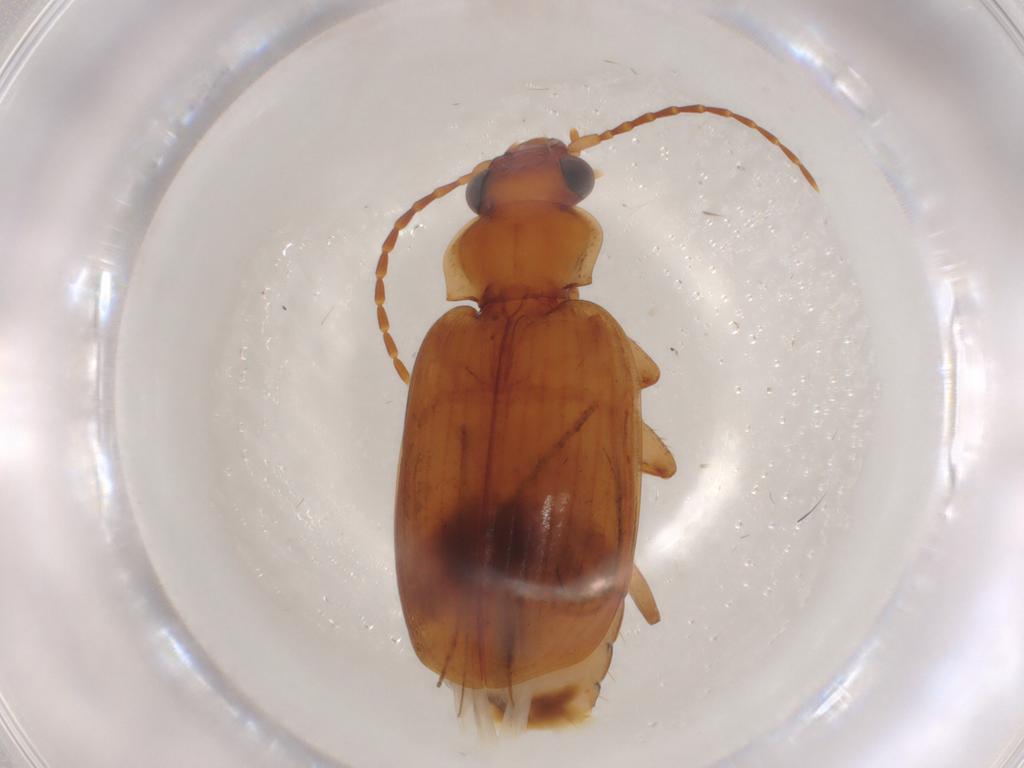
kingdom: Animalia
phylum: Arthropoda
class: Insecta
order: Coleoptera
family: Carabidae
